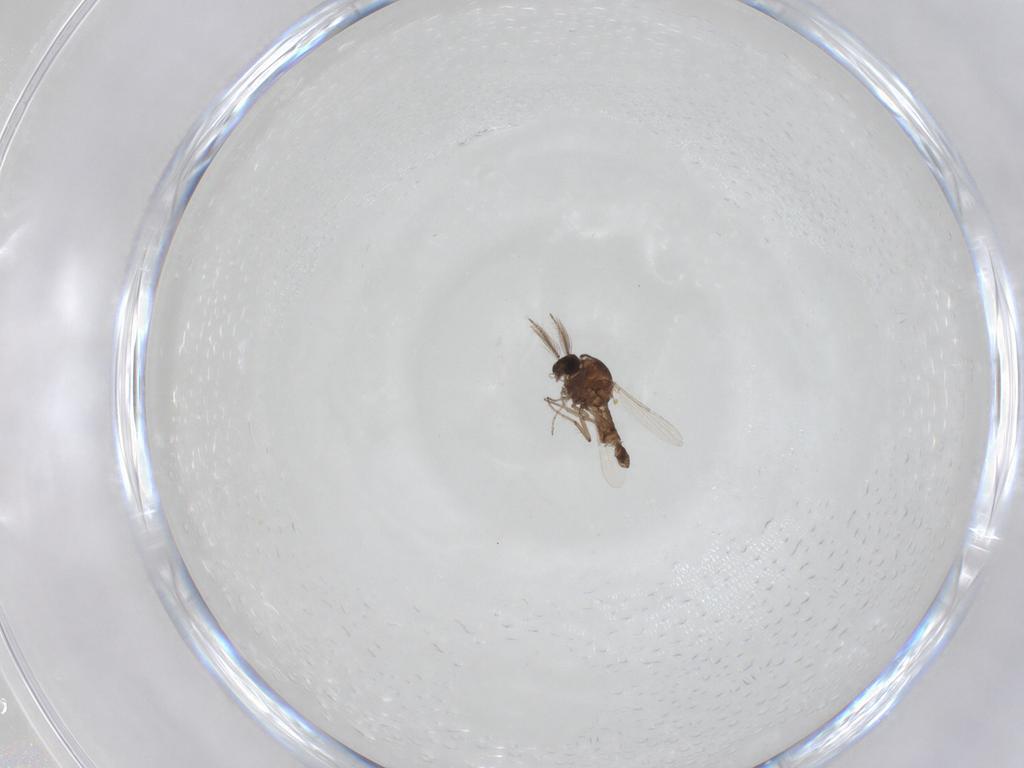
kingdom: Animalia
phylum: Arthropoda
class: Insecta
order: Diptera
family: Ceratopogonidae
